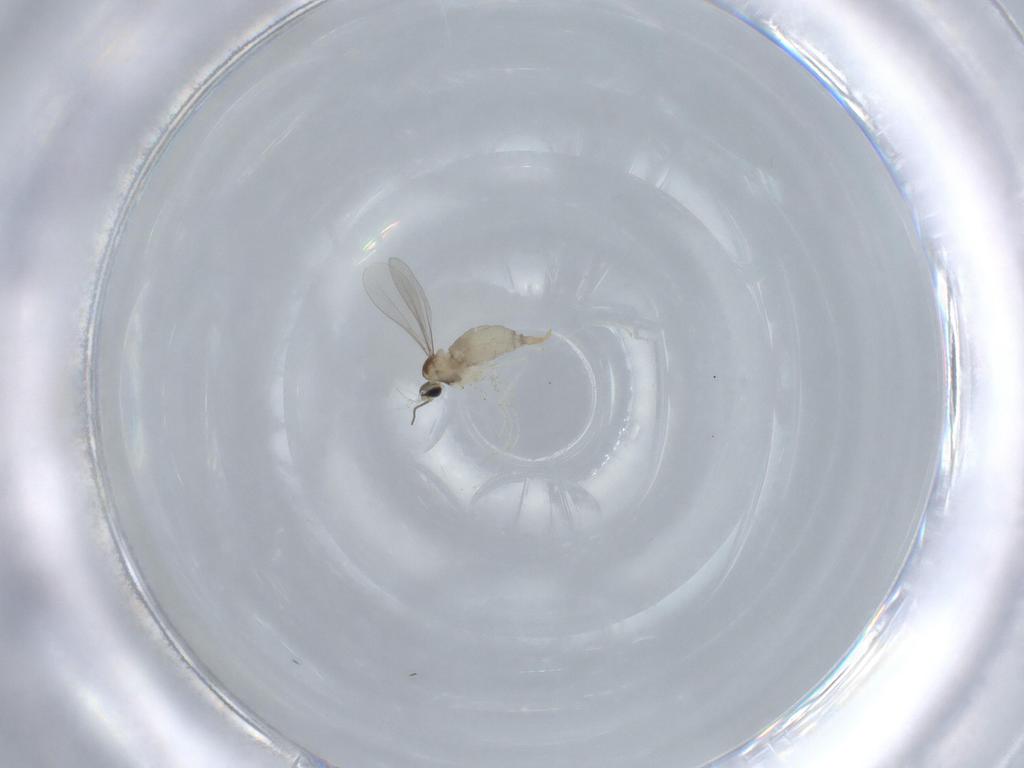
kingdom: Animalia
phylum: Arthropoda
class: Insecta
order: Diptera
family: Cecidomyiidae
